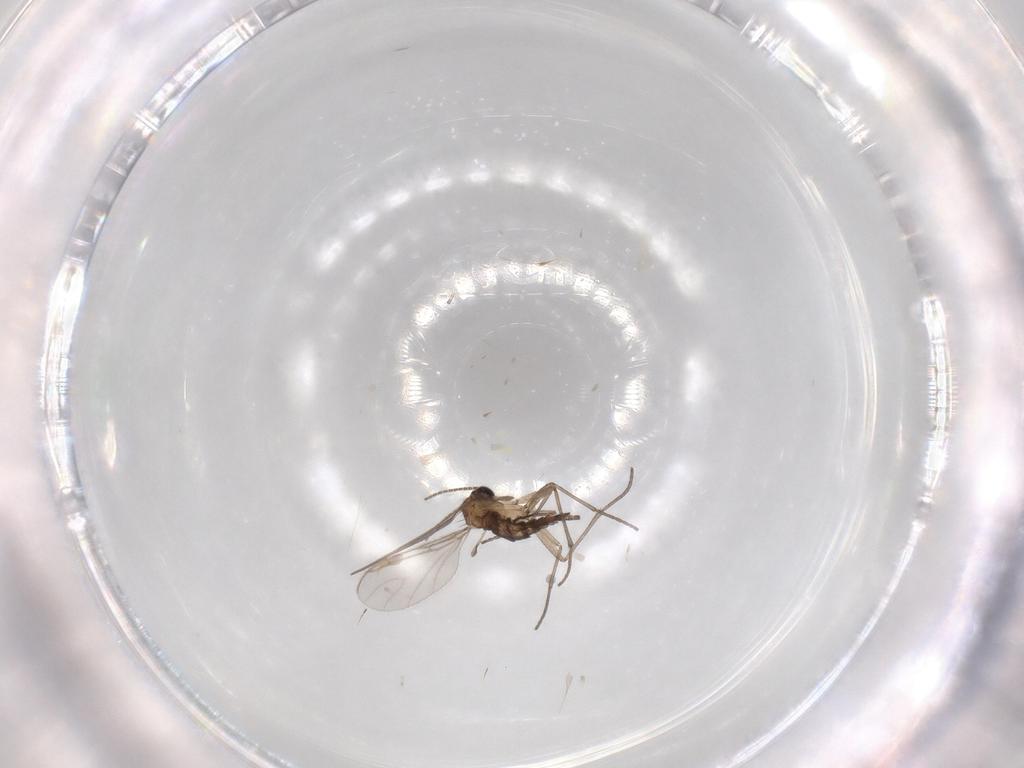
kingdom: Animalia
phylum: Arthropoda
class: Insecta
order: Diptera
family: Sciaridae
